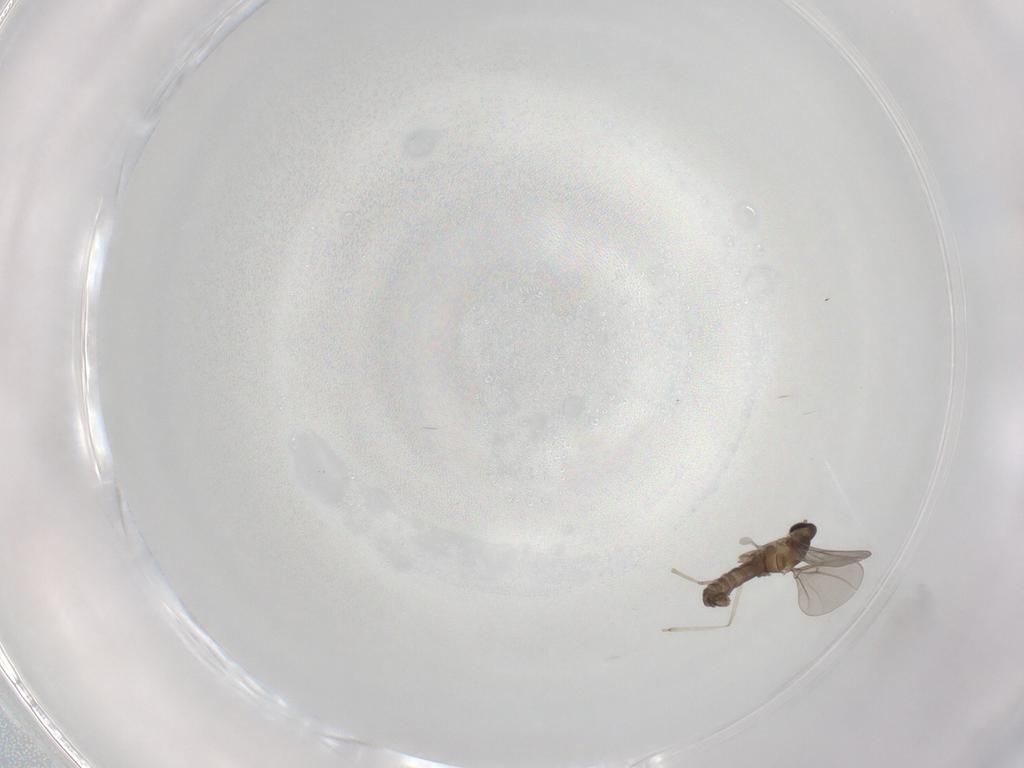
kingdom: Animalia
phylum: Arthropoda
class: Insecta
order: Diptera
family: Cecidomyiidae
